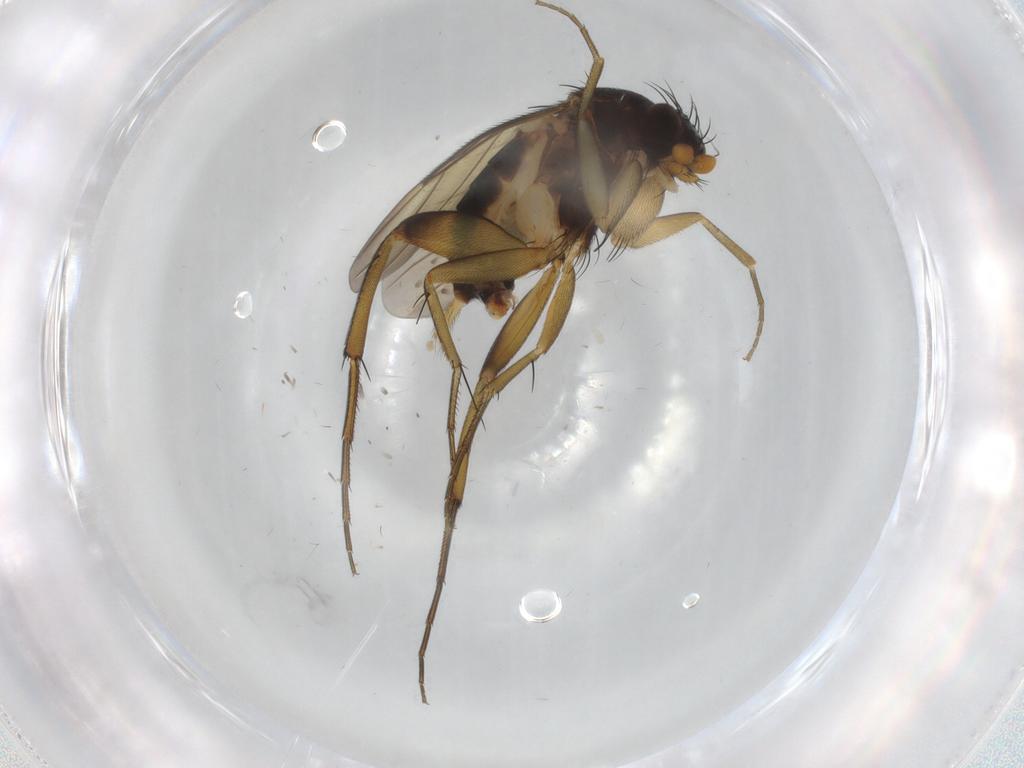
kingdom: Animalia
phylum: Arthropoda
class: Insecta
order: Diptera
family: Phoridae
